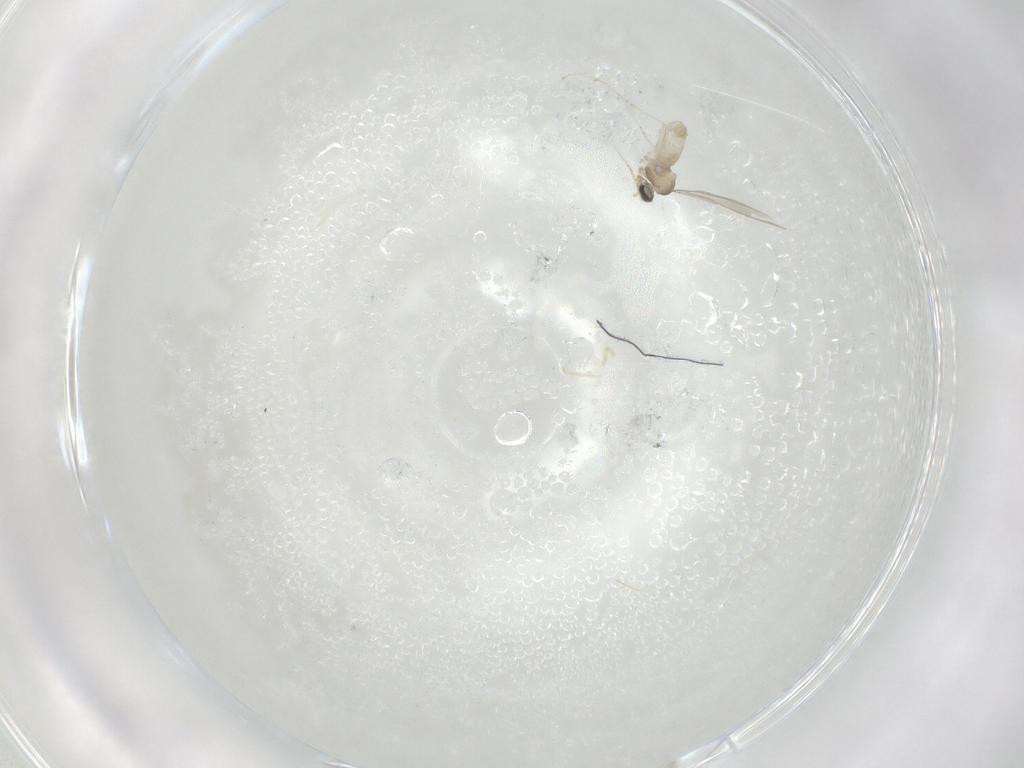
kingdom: Animalia
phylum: Arthropoda
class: Insecta
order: Diptera
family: Cecidomyiidae
